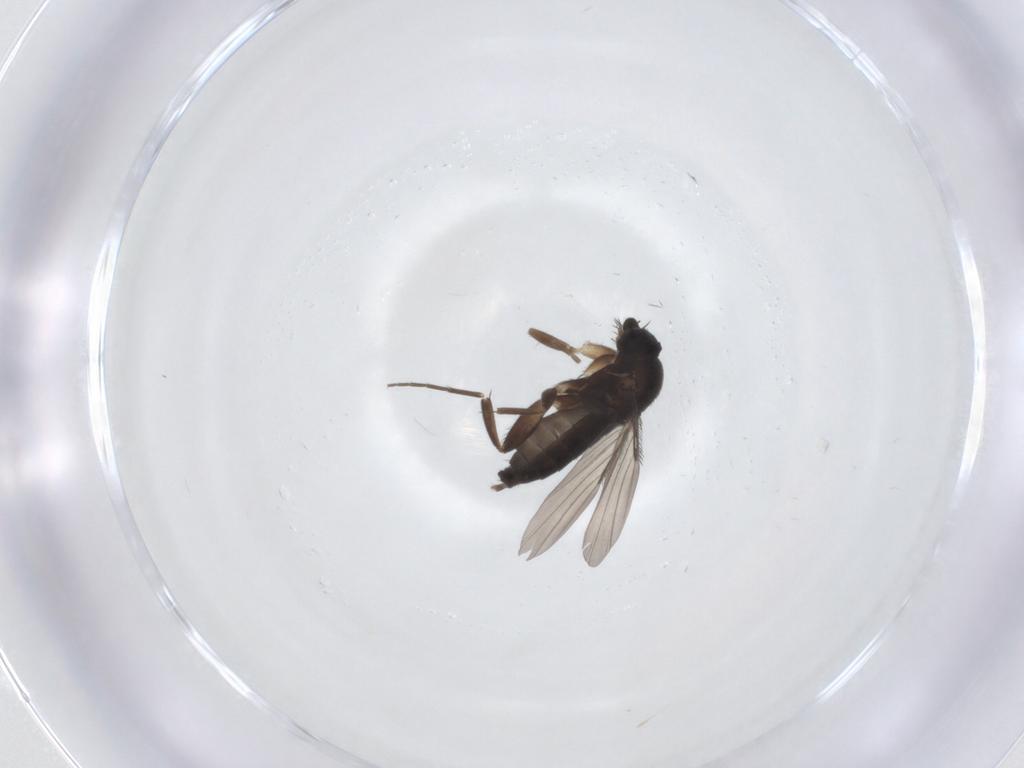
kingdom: Animalia
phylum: Arthropoda
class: Insecta
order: Diptera
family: Phoridae
